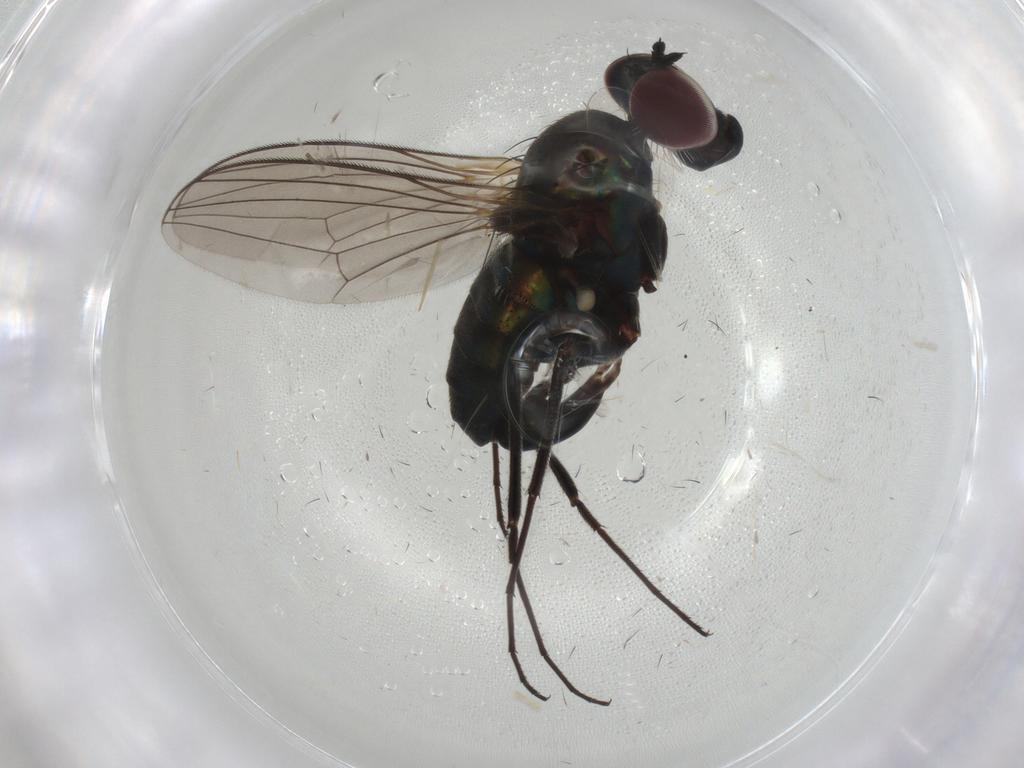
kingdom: Animalia
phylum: Arthropoda
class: Insecta
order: Diptera
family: Dolichopodidae
